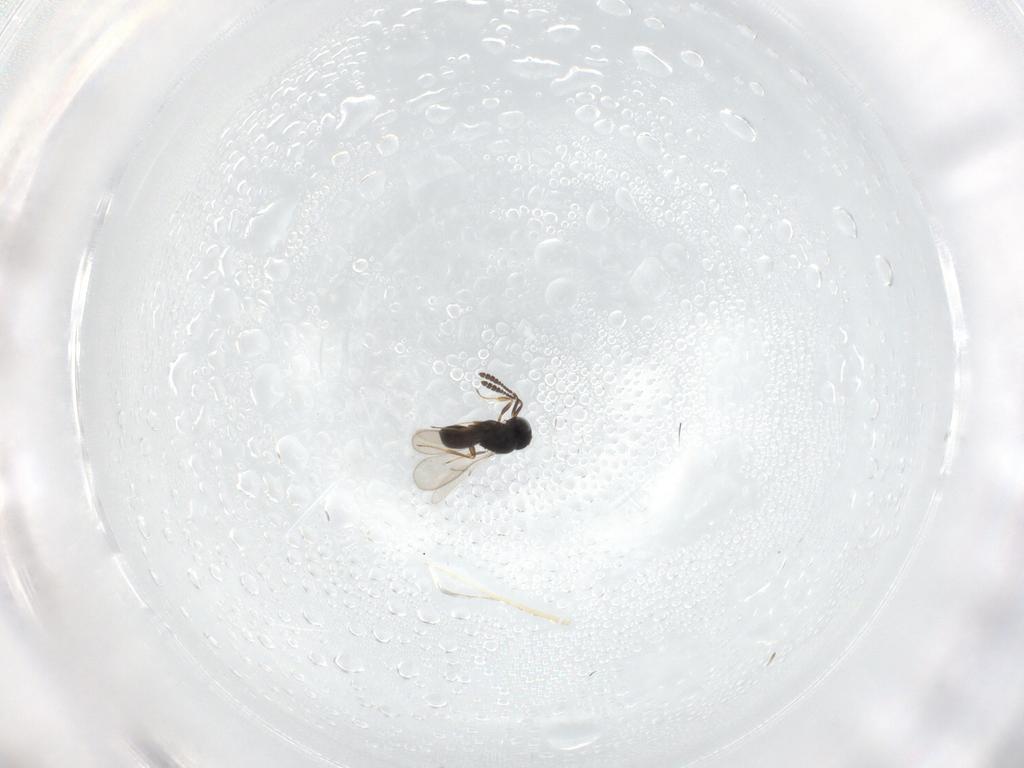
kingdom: Animalia
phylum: Arthropoda
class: Insecta
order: Hymenoptera
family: Scelionidae
